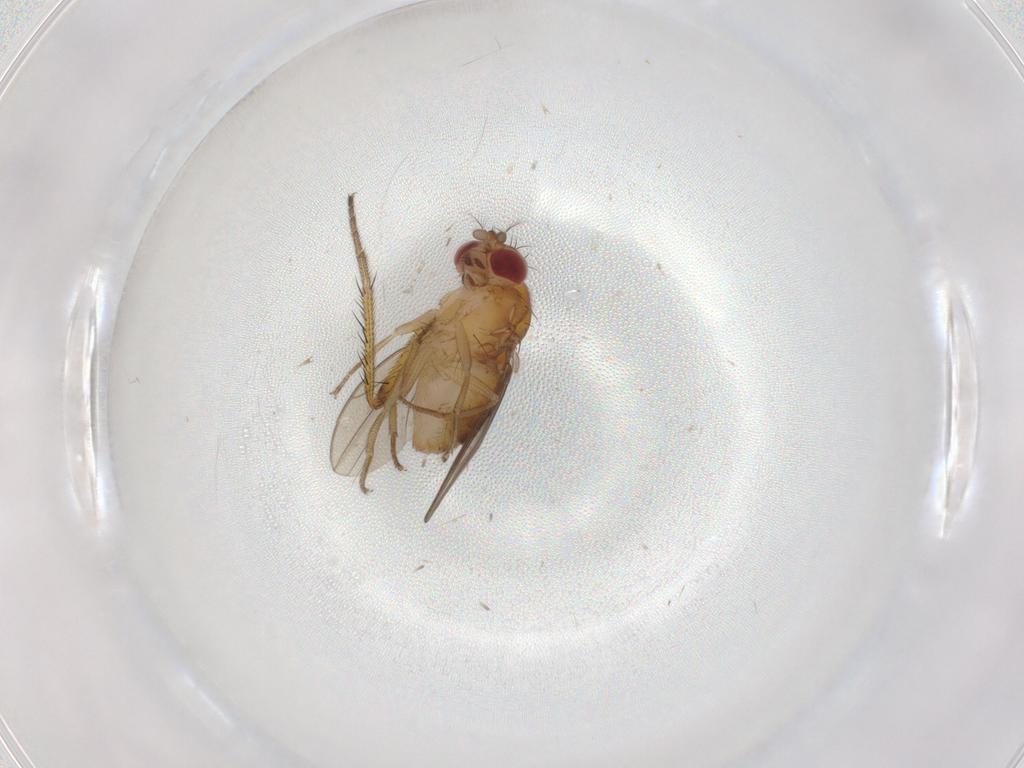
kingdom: Animalia
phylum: Arthropoda
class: Insecta
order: Diptera
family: Drosophilidae
